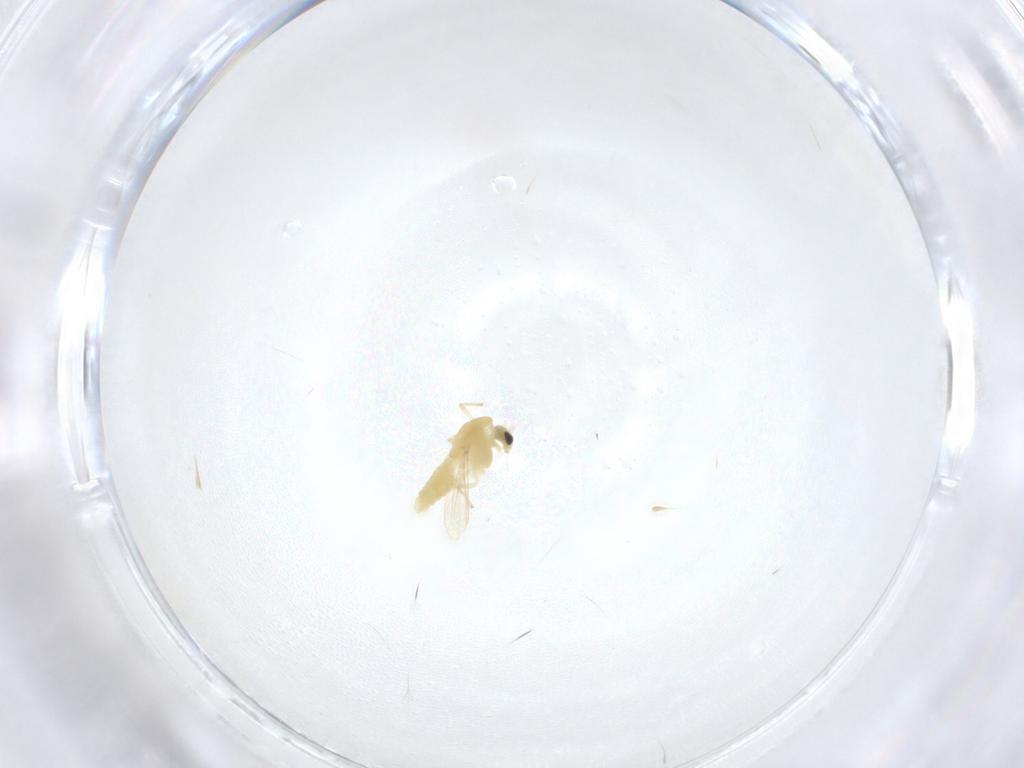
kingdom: Animalia
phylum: Arthropoda
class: Insecta
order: Diptera
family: Chironomidae
